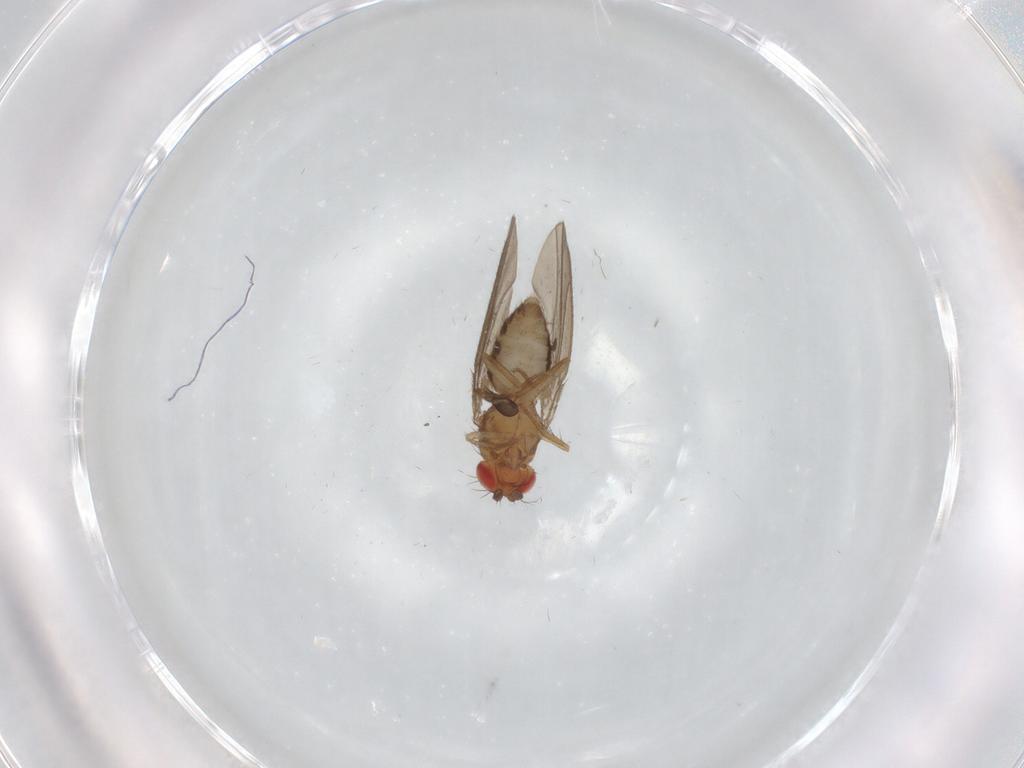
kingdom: Animalia
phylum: Arthropoda
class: Insecta
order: Diptera
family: Drosophilidae
